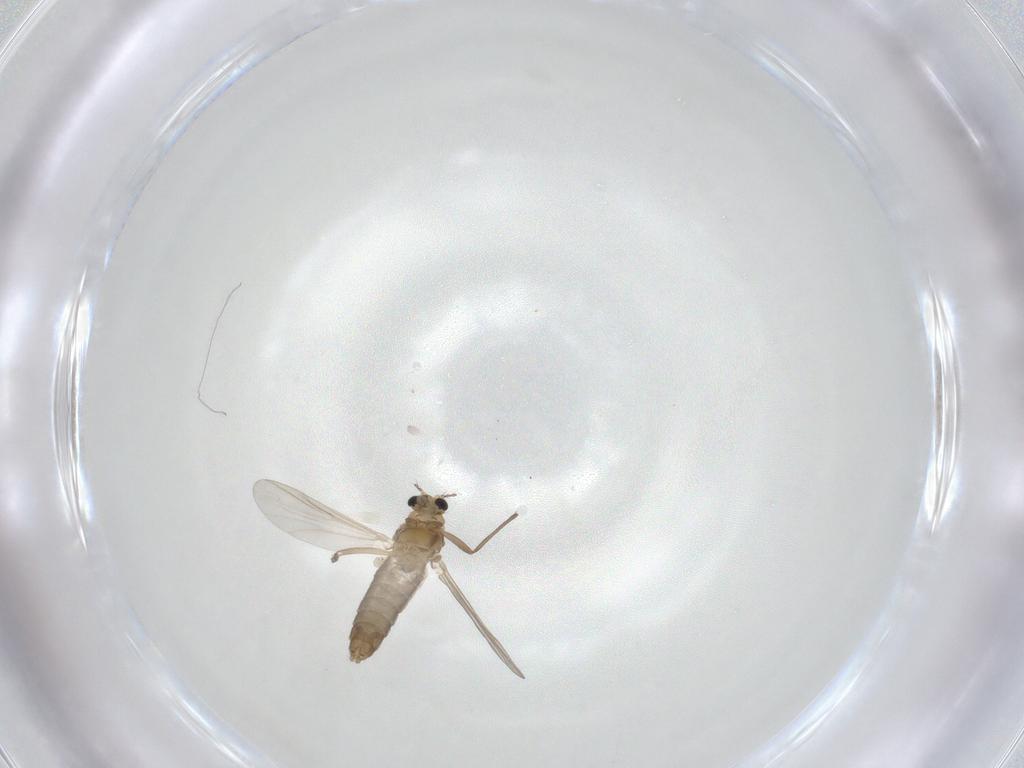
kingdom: Animalia
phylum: Arthropoda
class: Insecta
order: Diptera
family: Chironomidae
